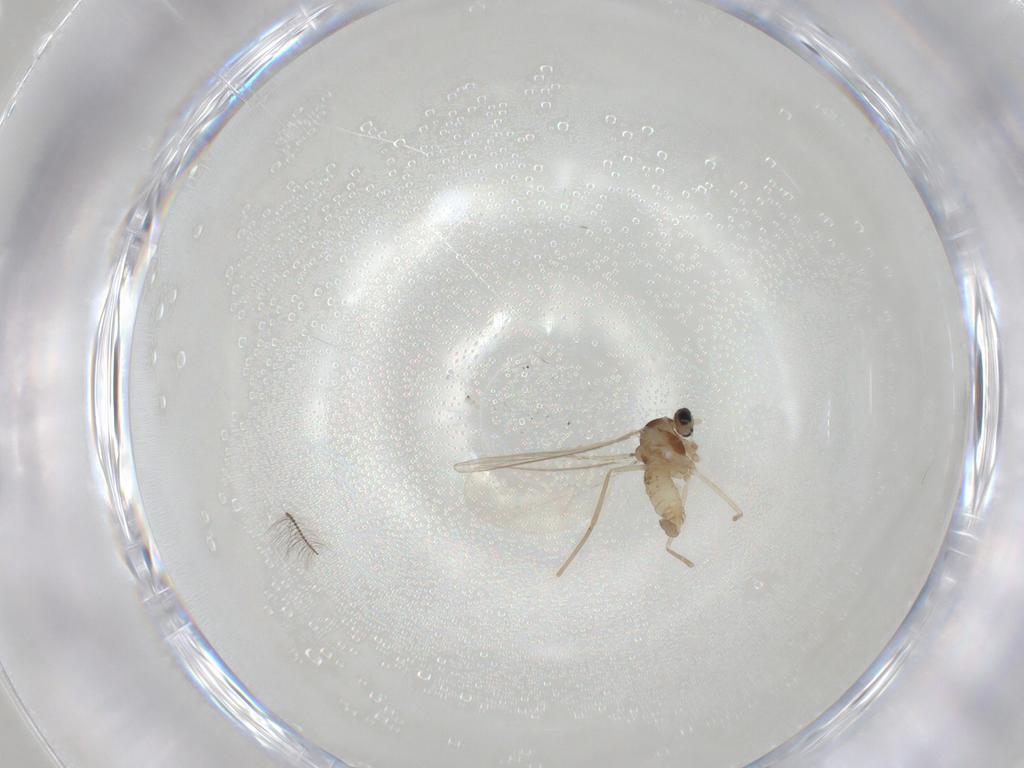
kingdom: Animalia
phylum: Arthropoda
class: Insecta
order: Diptera
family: Cecidomyiidae
